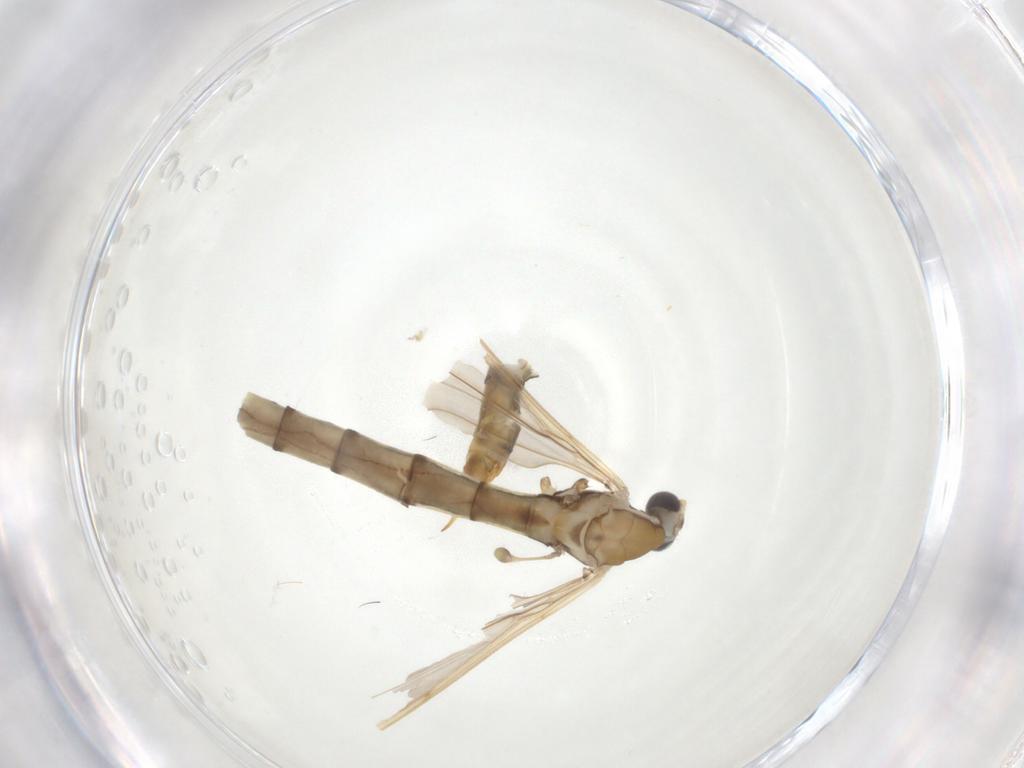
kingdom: Animalia
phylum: Arthropoda
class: Insecta
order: Diptera
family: Limoniidae
